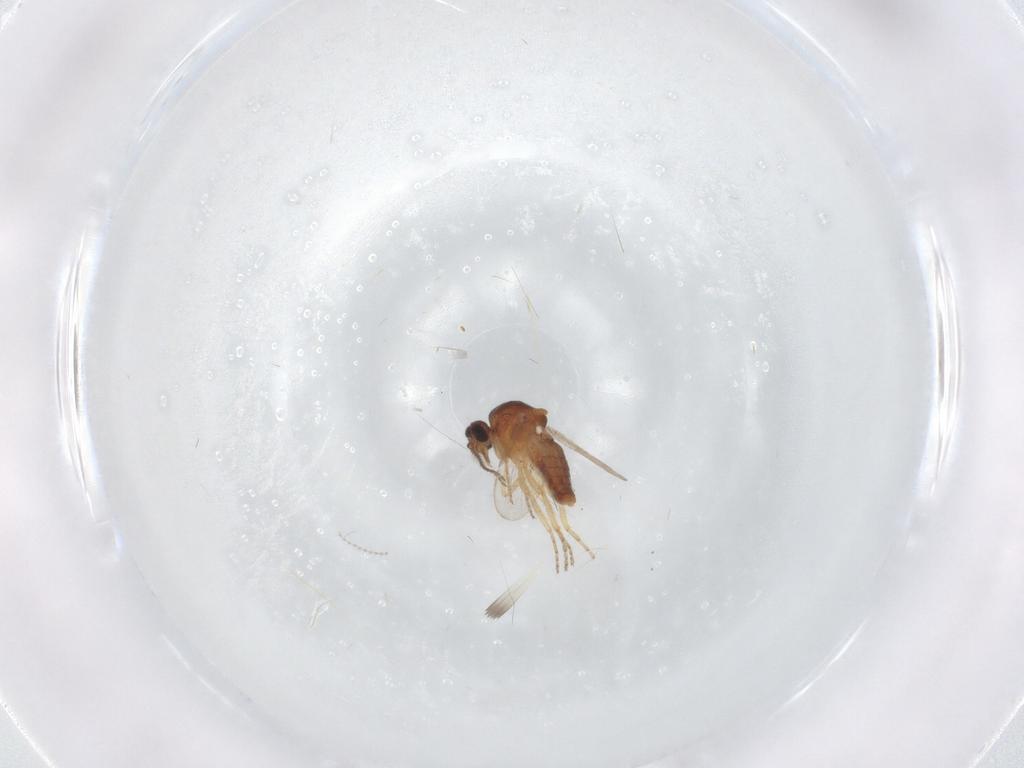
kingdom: Animalia
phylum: Arthropoda
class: Insecta
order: Diptera
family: Ceratopogonidae
